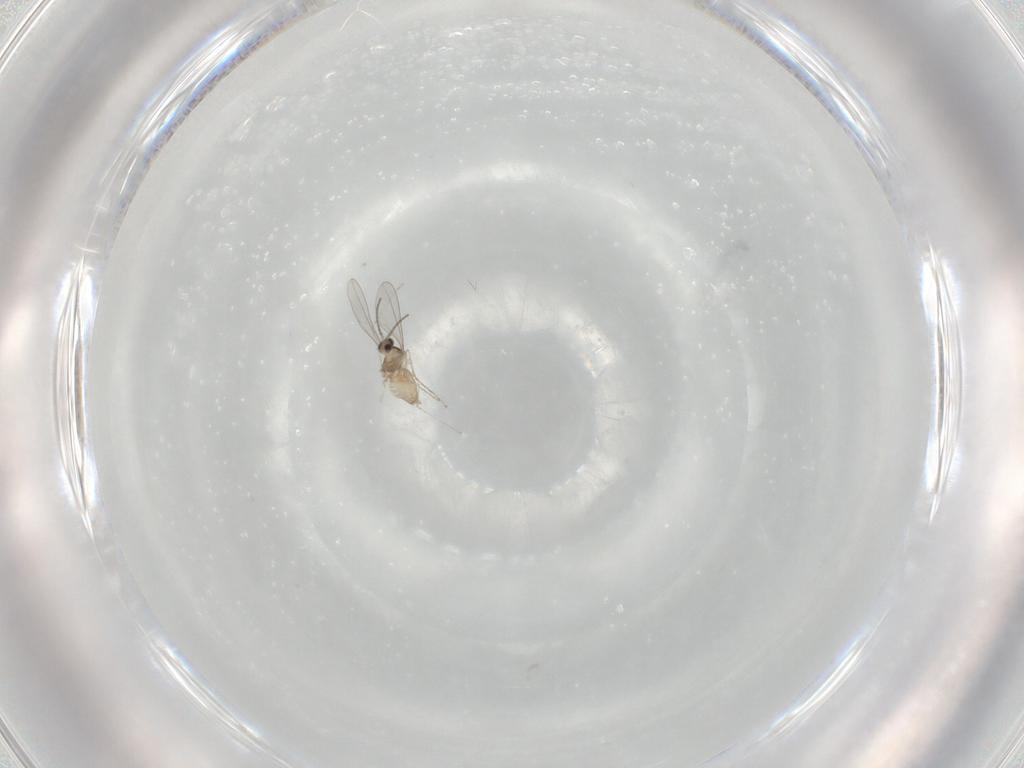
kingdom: Animalia
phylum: Arthropoda
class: Insecta
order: Diptera
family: Cecidomyiidae
